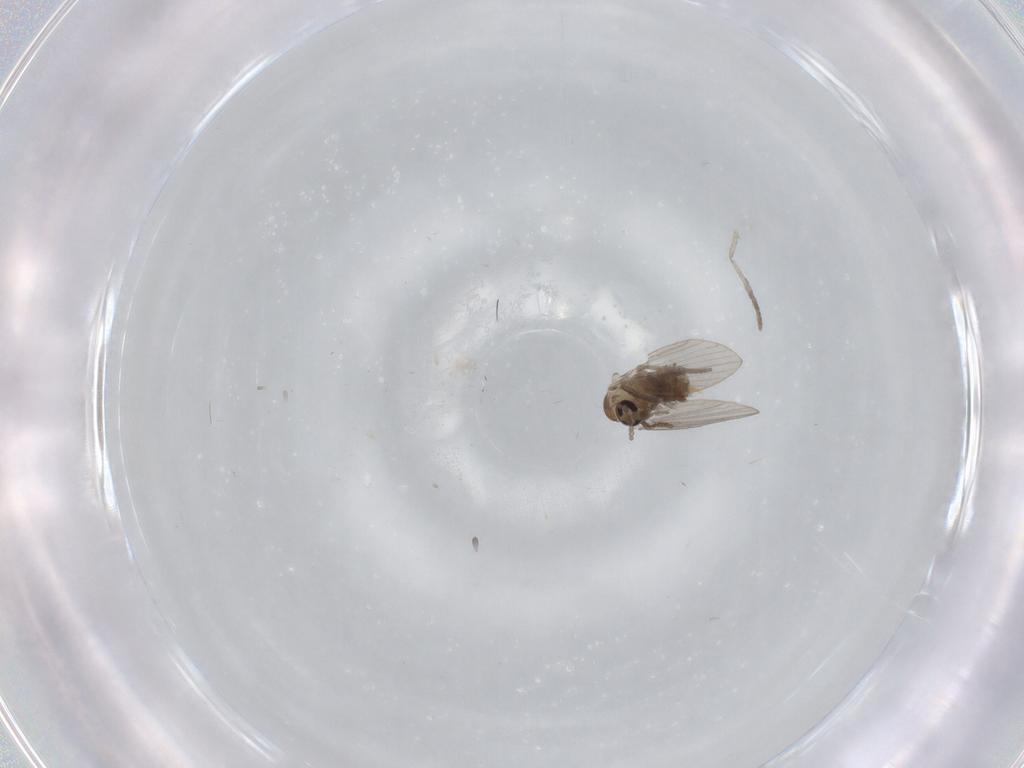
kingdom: Animalia
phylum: Arthropoda
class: Insecta
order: Diptera
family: Psychodidae
